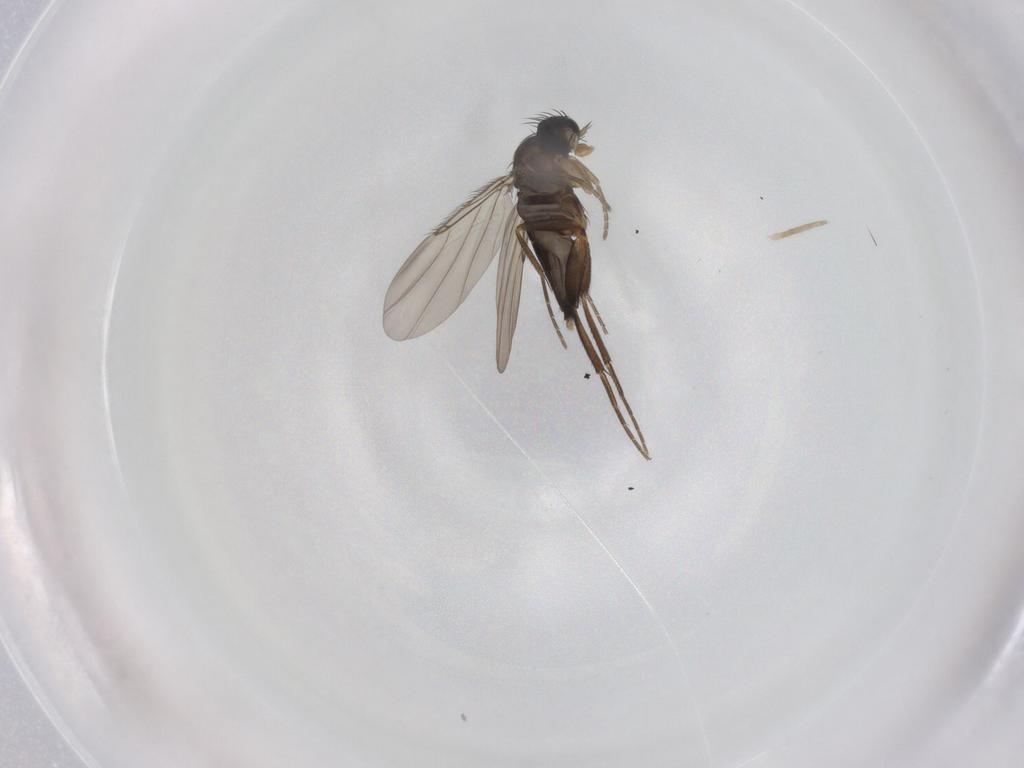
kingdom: Animalia
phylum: Arthropoda
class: Insecta
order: Diptera
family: Phoridae
